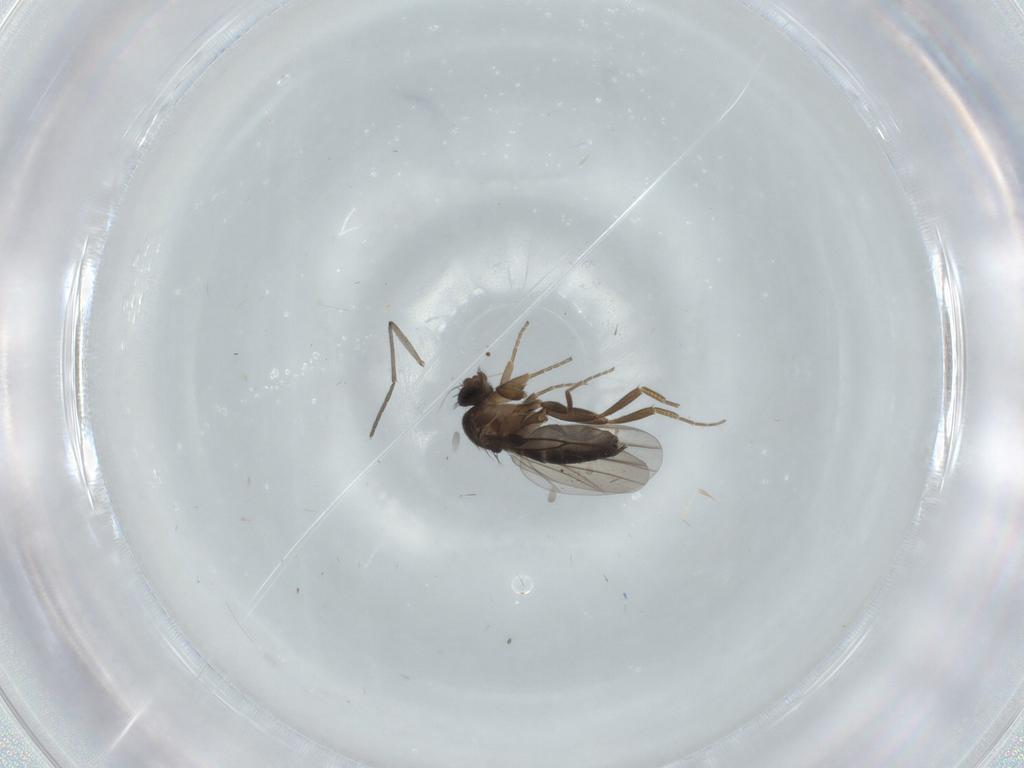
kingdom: Animalia
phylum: Arthropoda
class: Insecta
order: Diptera
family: Sciaridae
